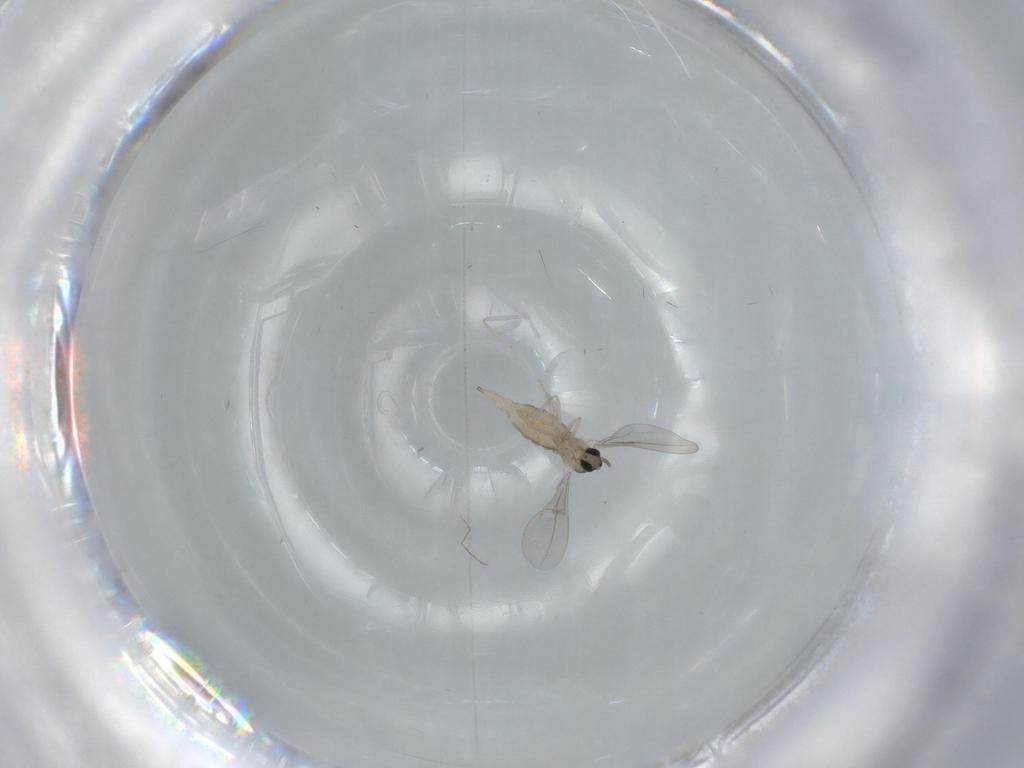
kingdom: Animalia
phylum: Arthropoda
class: Insecta
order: Diptera
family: Cecidomyiidae
